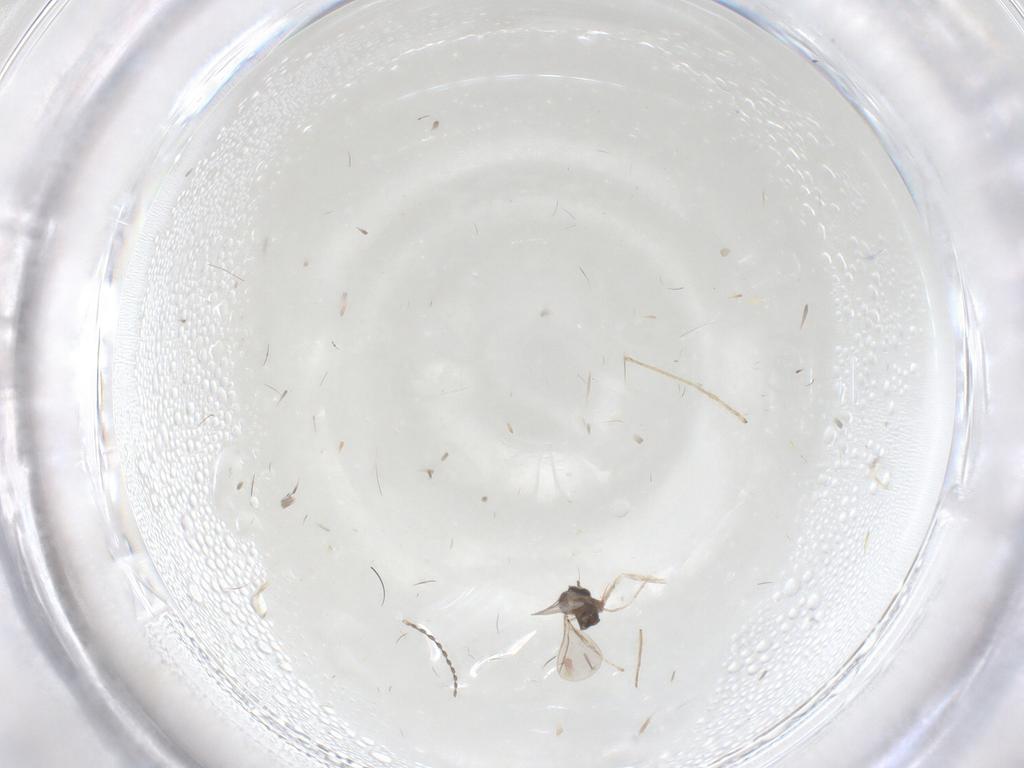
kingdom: Animalia
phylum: Arthropoda
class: Insecta
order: Diptera
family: Limoniidae
